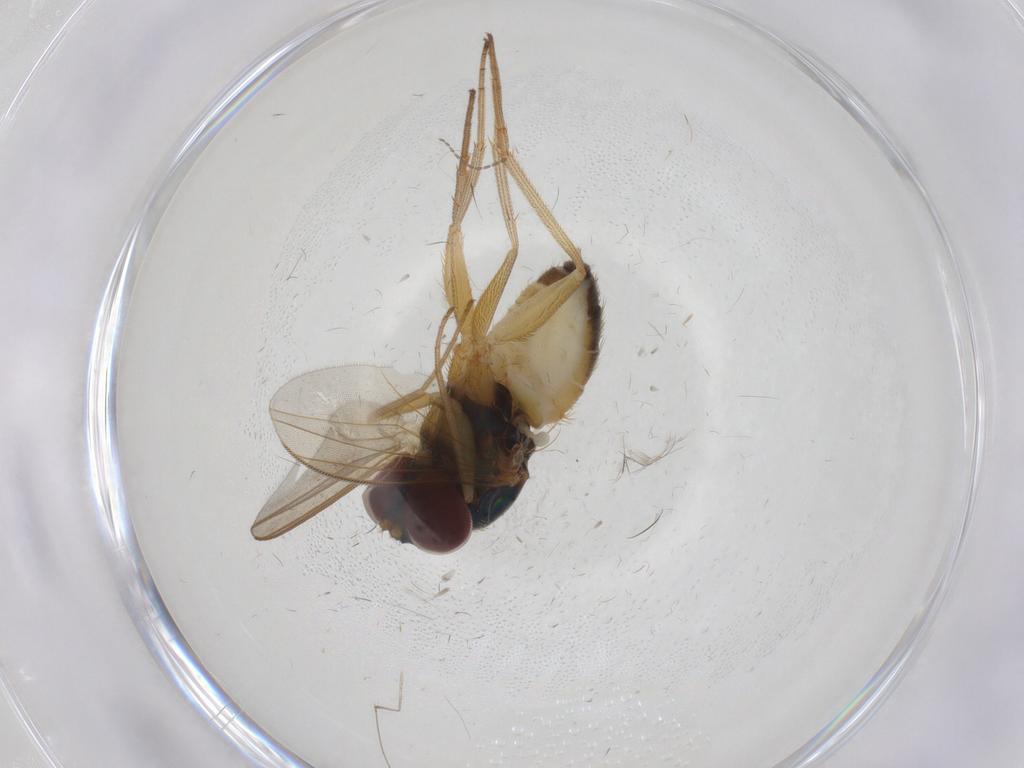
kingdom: Animalia
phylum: Arthropoda
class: Insecta
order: Diptera
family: Dolichopodidae
